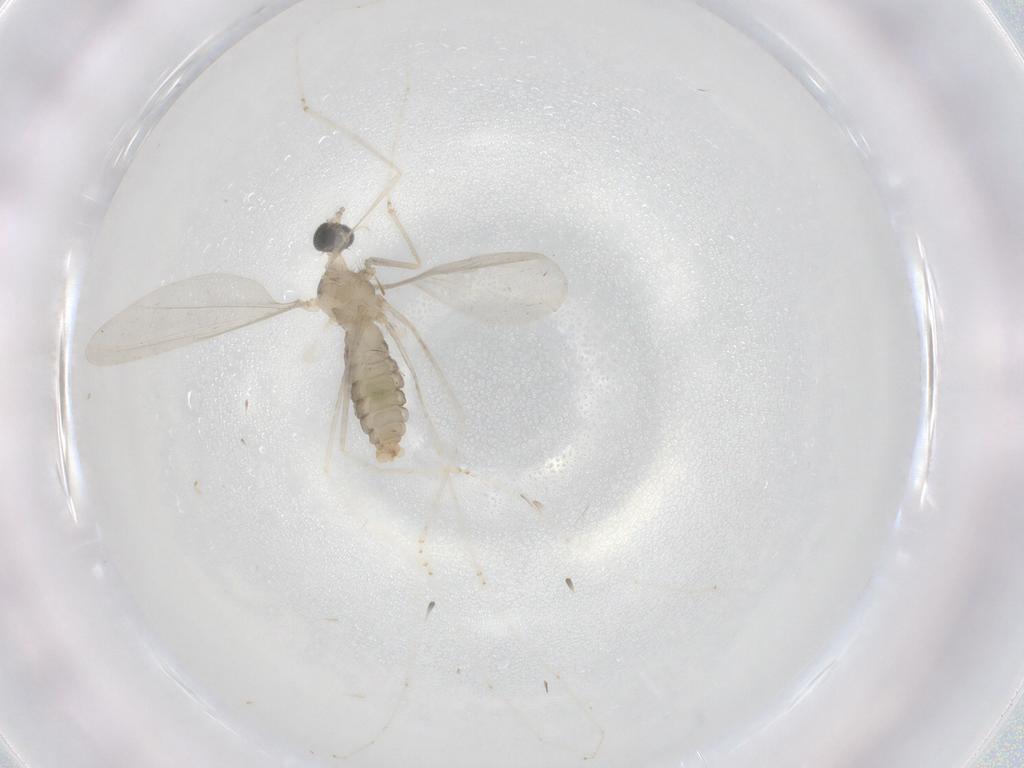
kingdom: Animalia
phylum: Arthropoda
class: Insecta
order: Diptera
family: Cecidomyiidae
